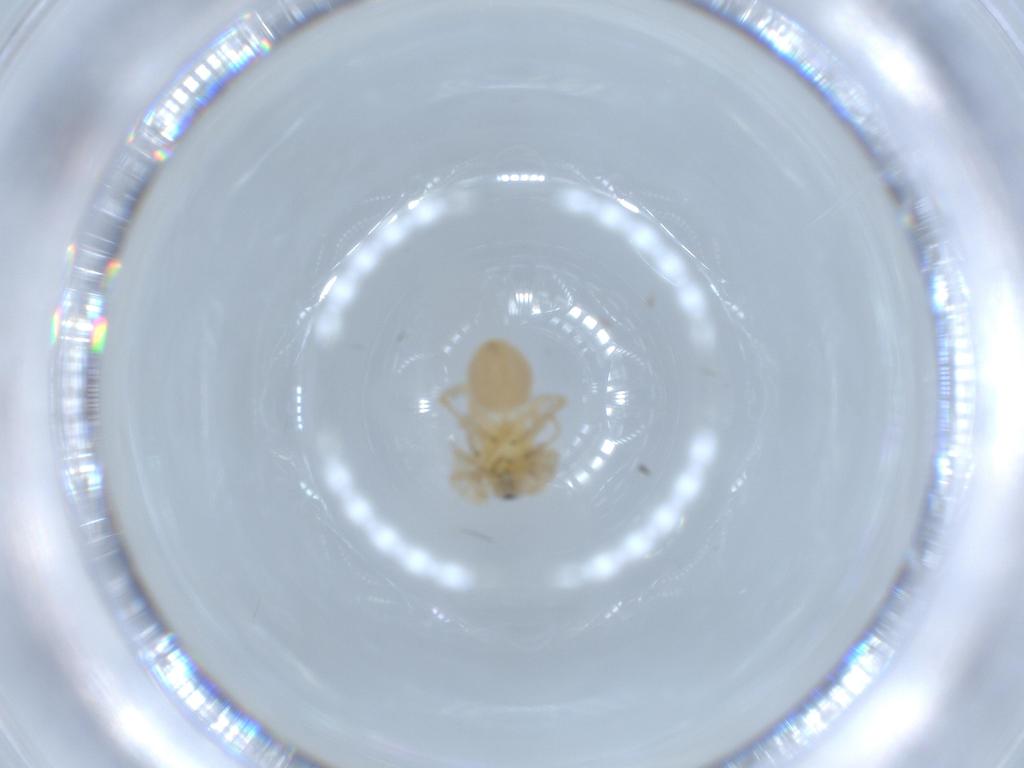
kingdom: Animalia
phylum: Arthropoda
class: Arachnida
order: Araneae
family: Anyphaenidae
